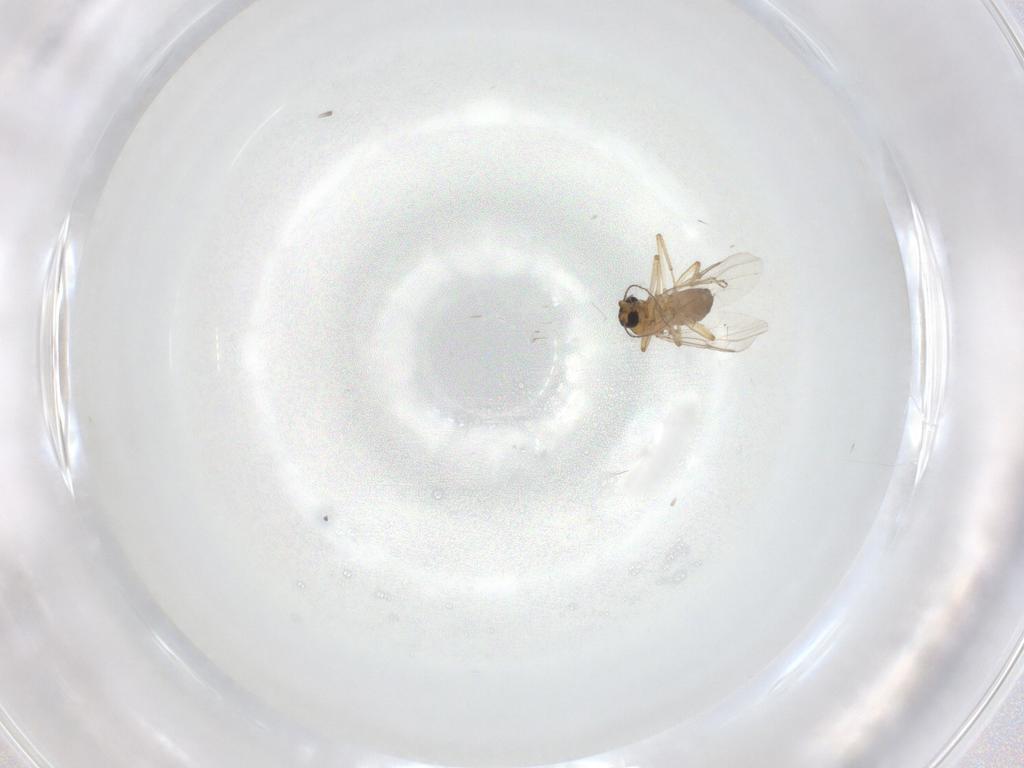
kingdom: Animalia
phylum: Arthropoda
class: Insecta
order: Diptera
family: Ceratopogonidae
